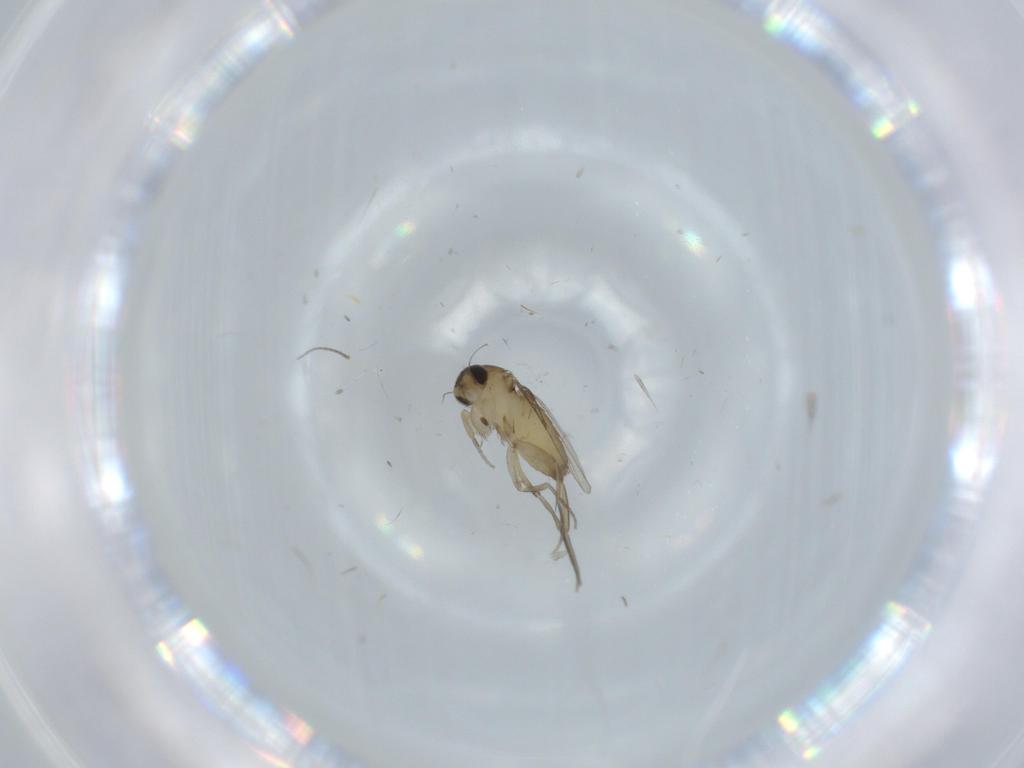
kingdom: Animalia
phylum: Arthropoda
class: Insecta
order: Diptera
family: Phoridae
